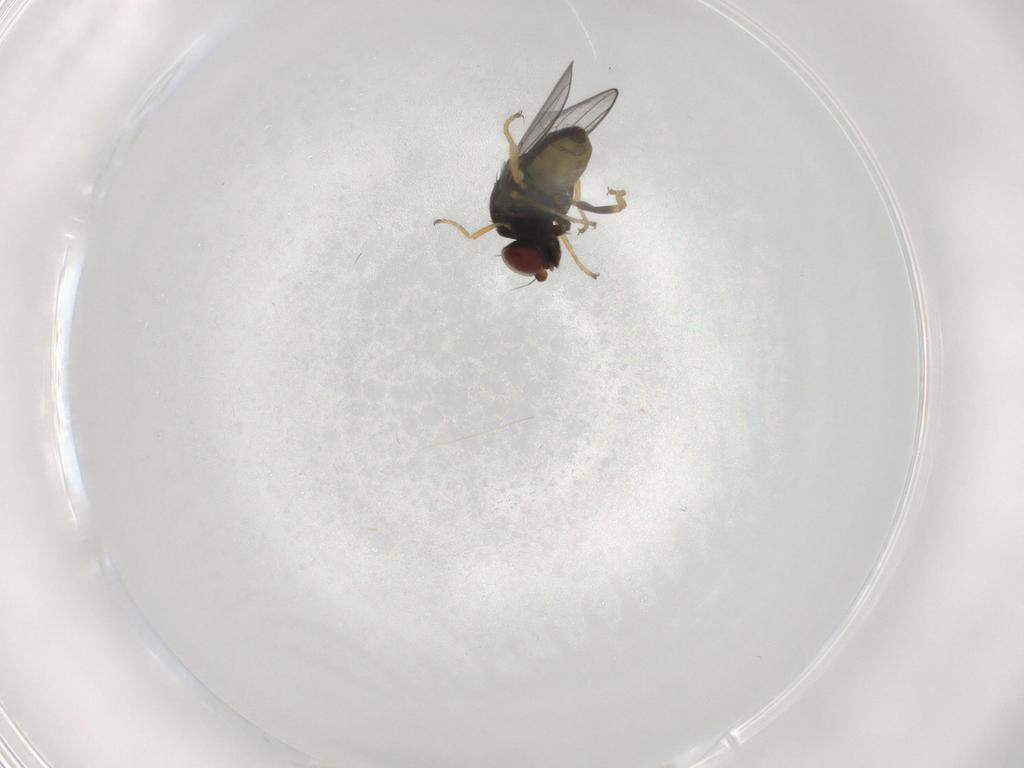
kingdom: Animalia
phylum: Arthropoda
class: Insecta
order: Diptera
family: Chloropidae
